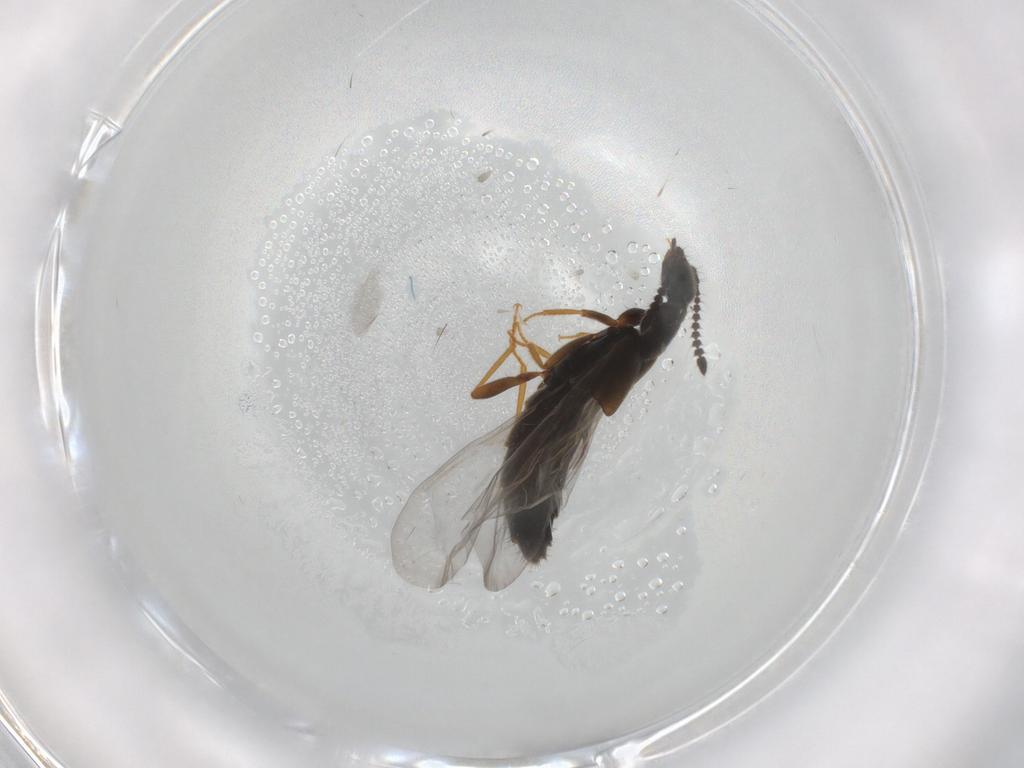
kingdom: Animalia
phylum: Arthropoda
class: Insecta
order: Coleoptera
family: Staphylinidae
